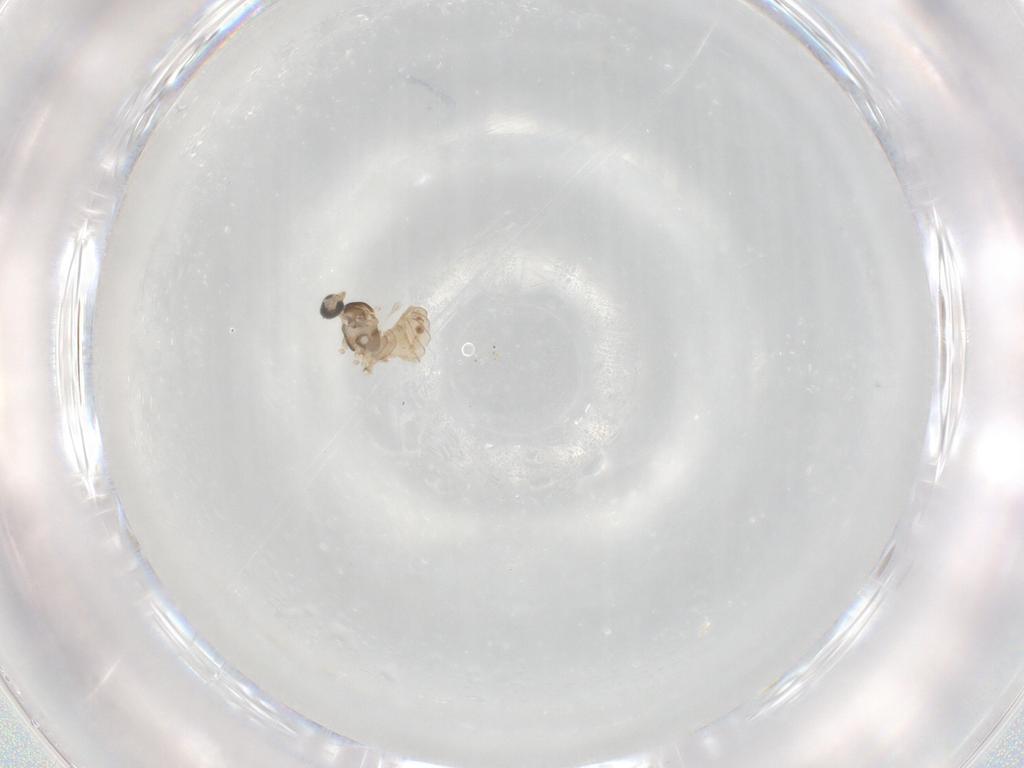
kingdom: Animalia
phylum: Arthropoda
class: Insecta
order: Diptera
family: Cecidomyiidae
